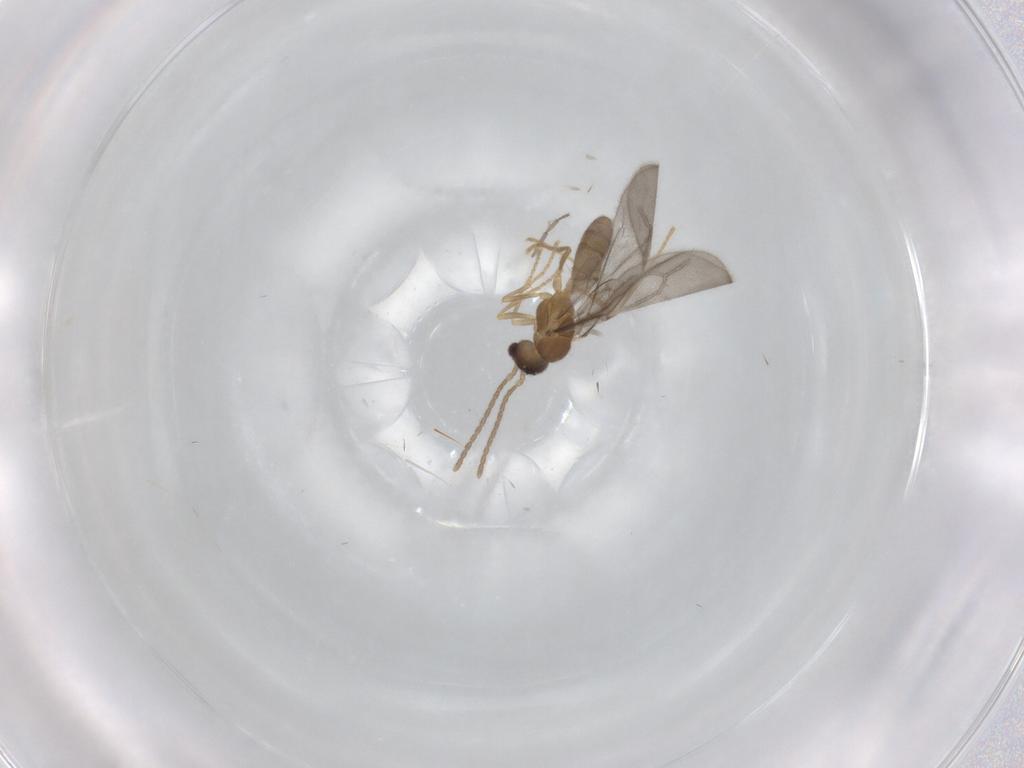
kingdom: Animalia
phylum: Arthropoda
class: Insecta
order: Hymenoptera
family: Formicidae
